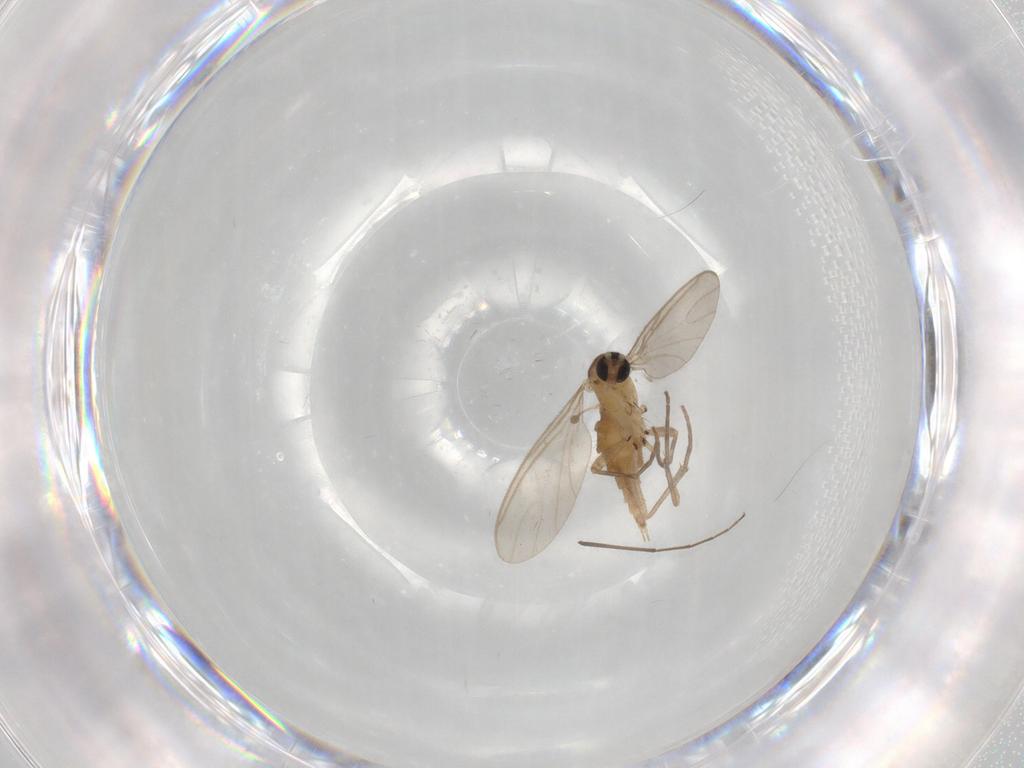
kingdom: Animalia
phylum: Arthropoda
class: Insecta
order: Diptera
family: Sciaridae
